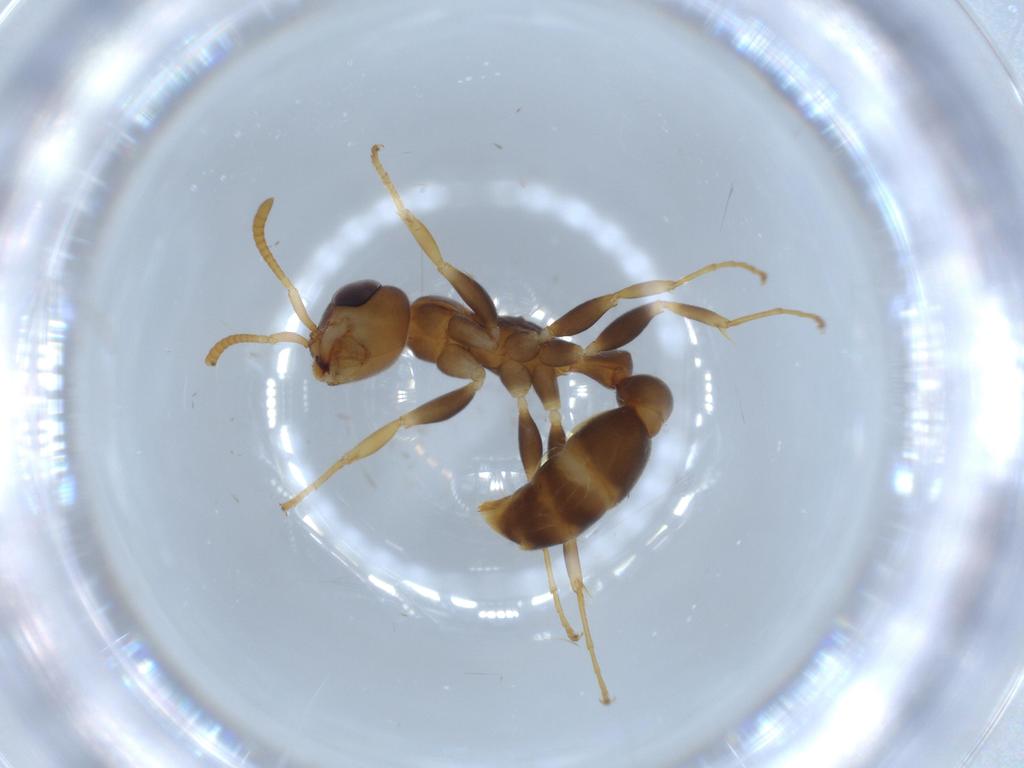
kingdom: Animalia
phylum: Arthropoda
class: Insecta
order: Hymenoptera
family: Formicidae
